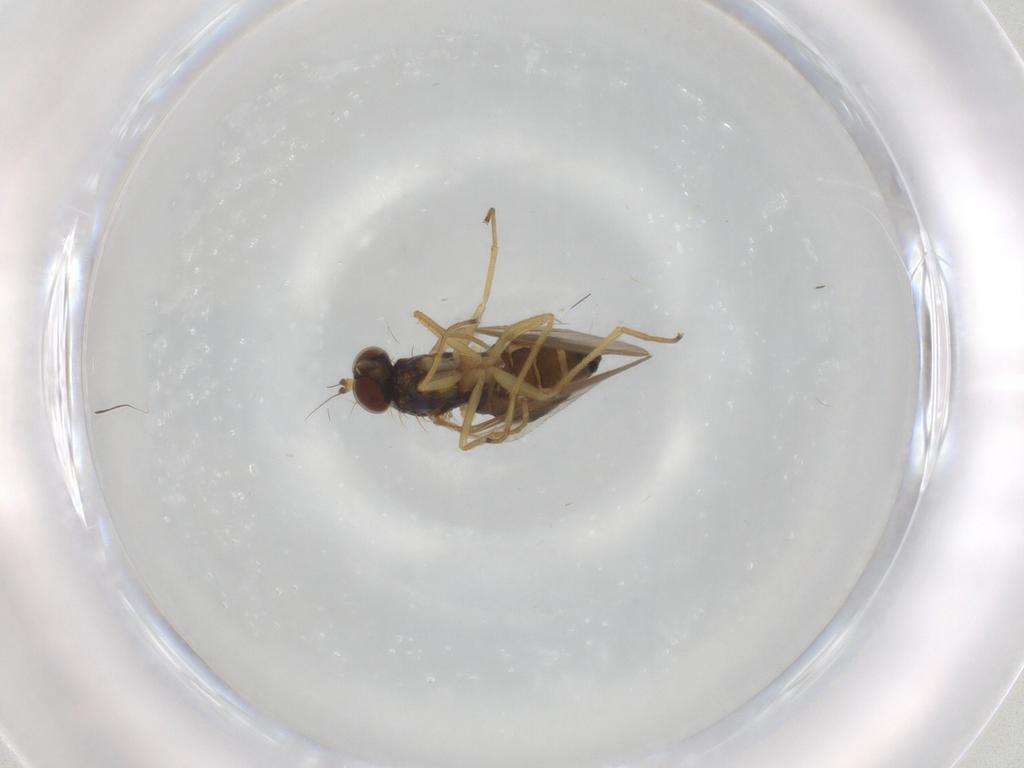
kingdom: Animalia
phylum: Arthropoda
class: Insecta
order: Diptera
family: Dolichopodidae
